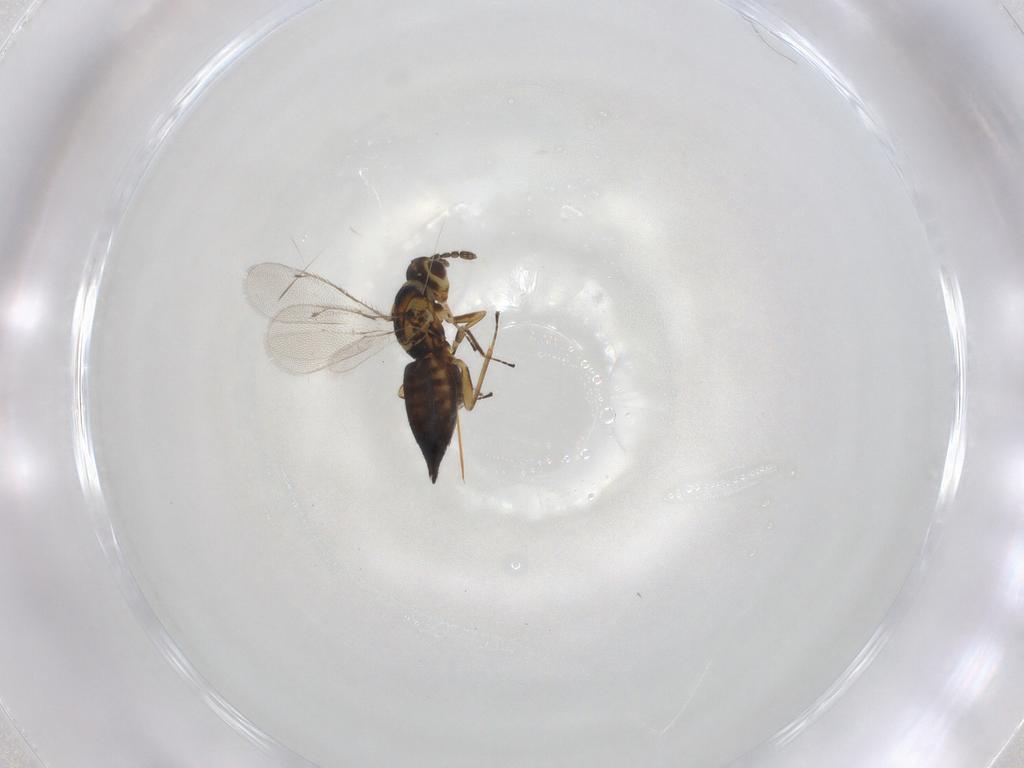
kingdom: Animalia
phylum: Arthropoda
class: Insecta
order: Hymenoptera
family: Eulophidae
